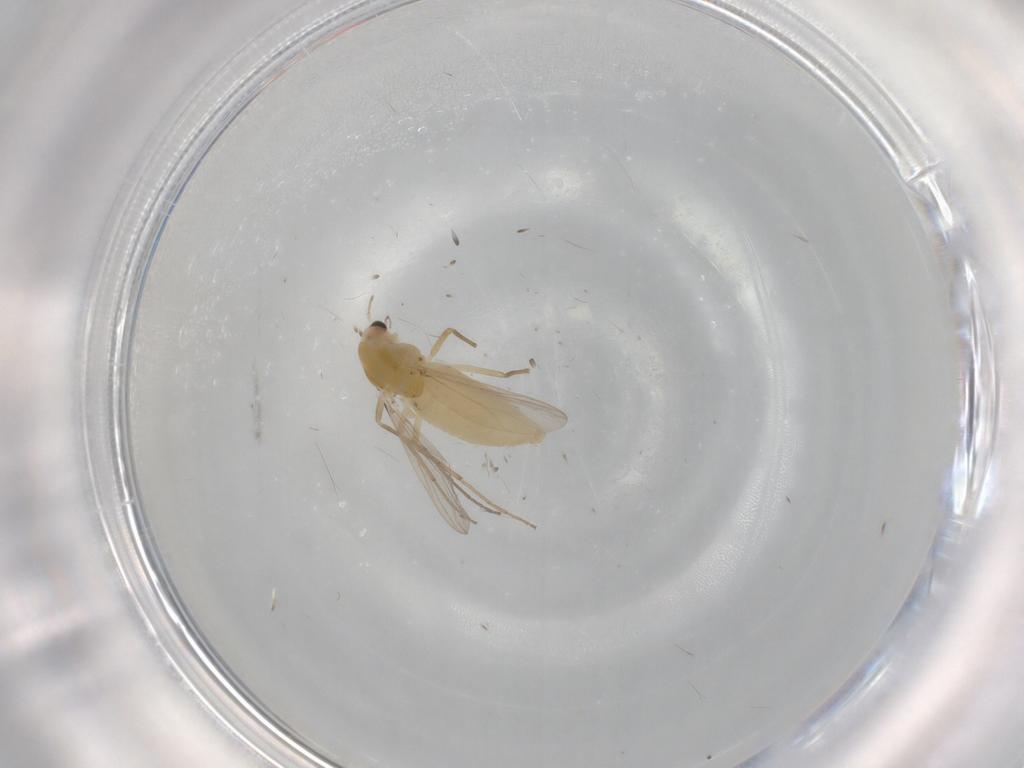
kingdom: Animalia
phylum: Arthropoda
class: Insecta
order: Diptera
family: Chironomidae
